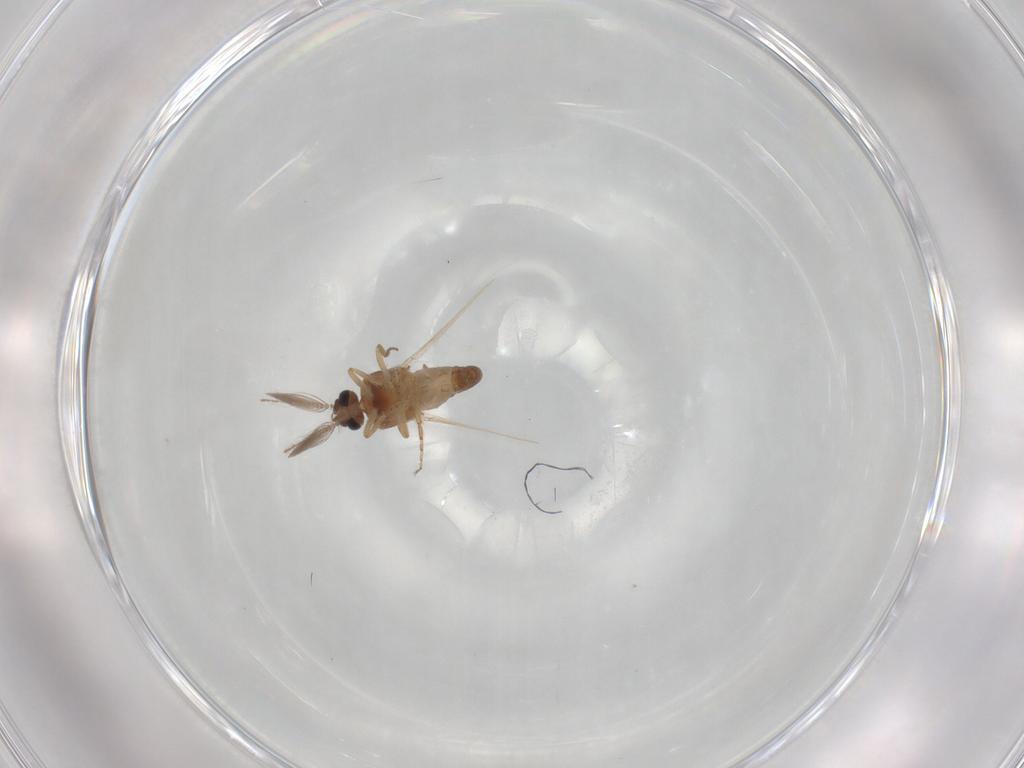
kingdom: Animalia
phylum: Arthropoda
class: Insecta
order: Diptera
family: Ceratopogonidae
